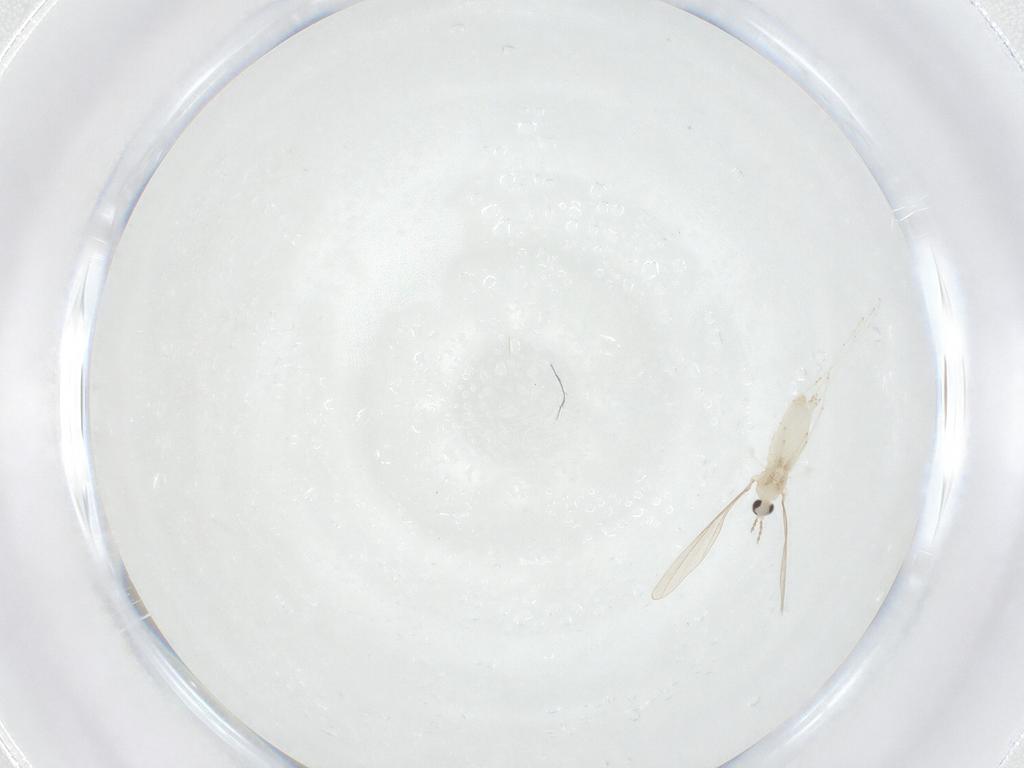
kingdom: Animalia
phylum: Arthropoda
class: Insecta
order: Diptera
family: Cecidomyiidae
